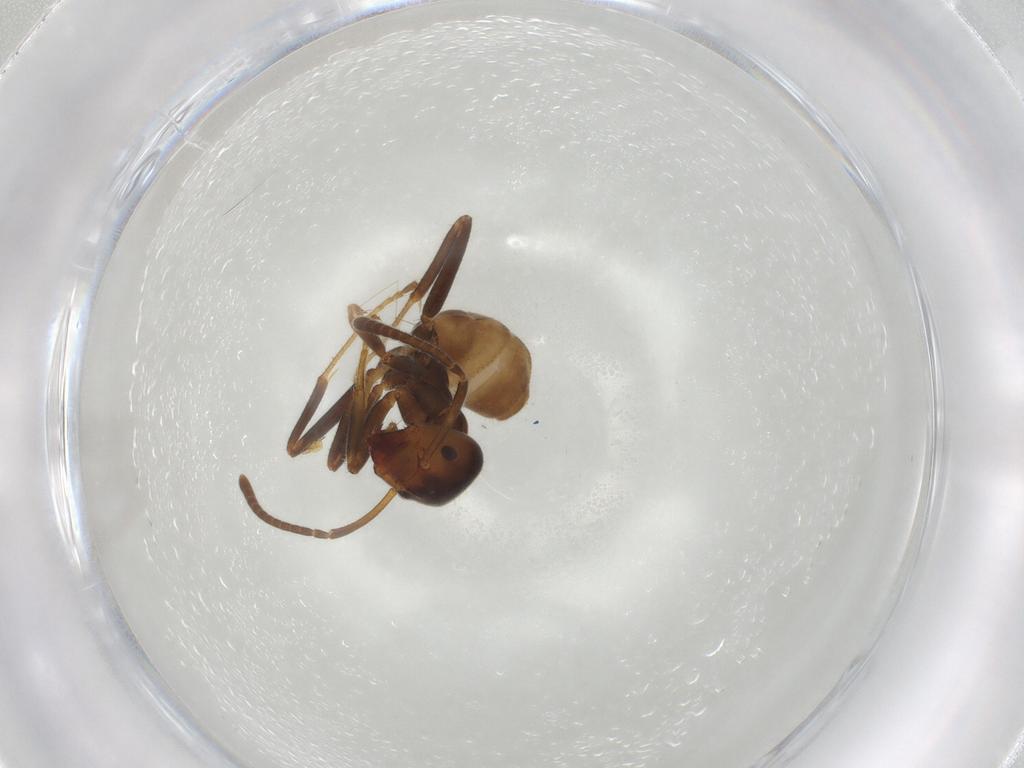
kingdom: Animalia
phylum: Arthropoda
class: Insecta
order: Hymenoptera
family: Formicidae
